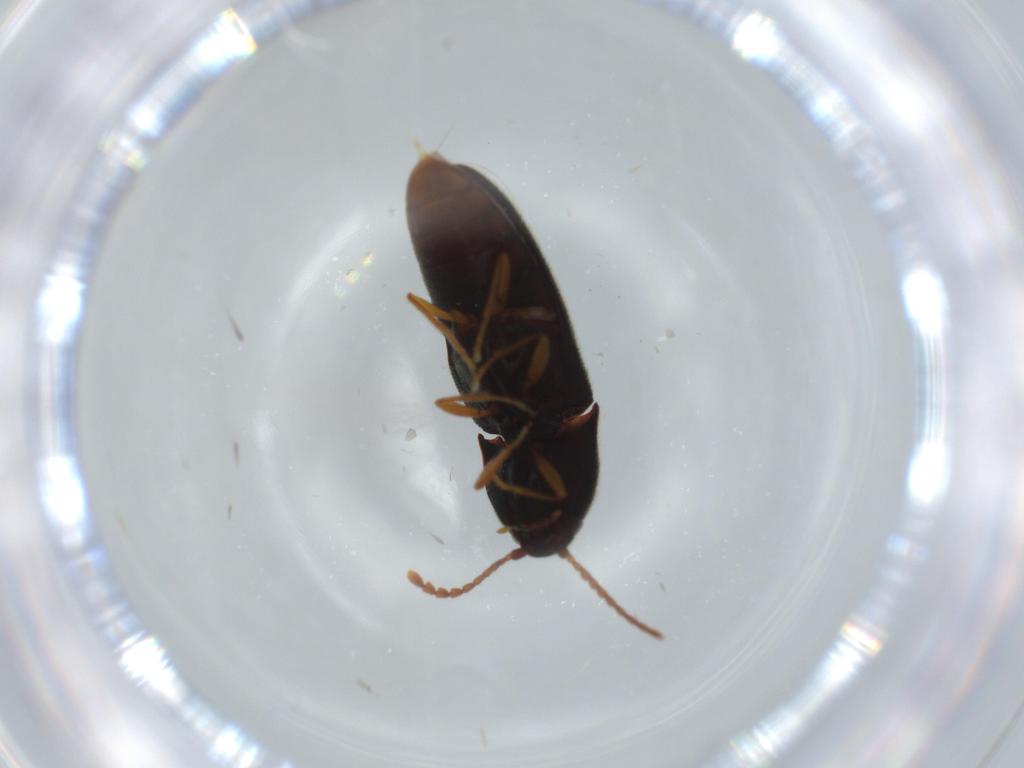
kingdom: Animalia
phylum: Arthropoda
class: Insecta
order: Coleoptera
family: Elateridae
